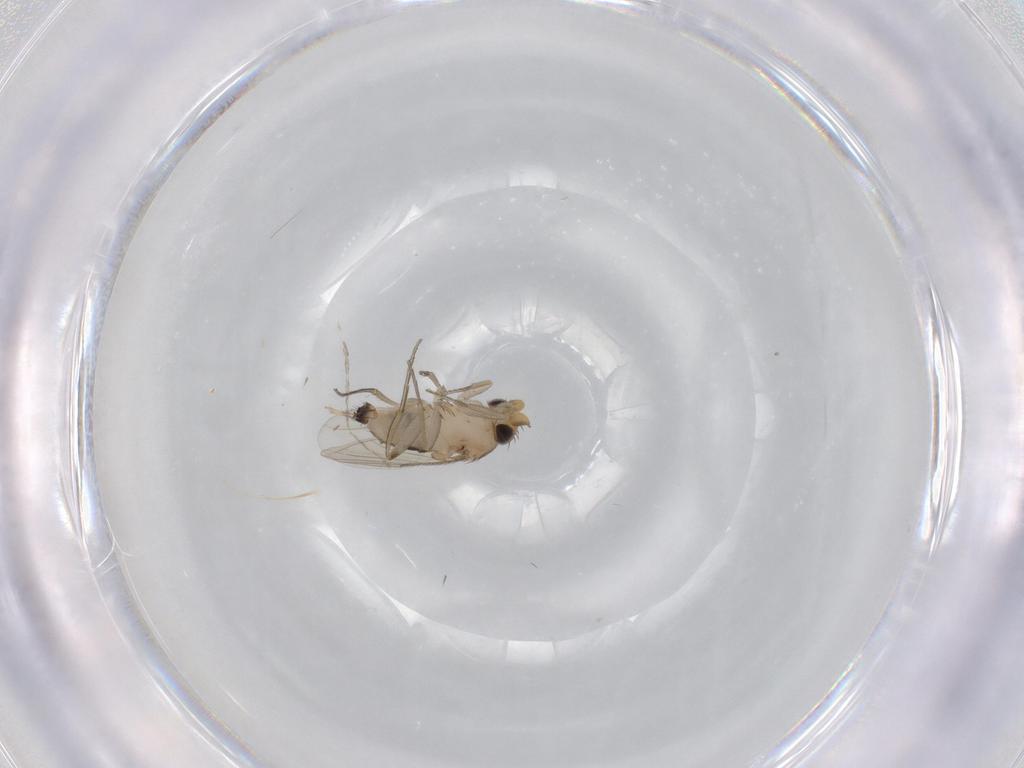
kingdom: Animalia
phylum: Arthropoda
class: Insecta
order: Diptera
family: Phoridae
